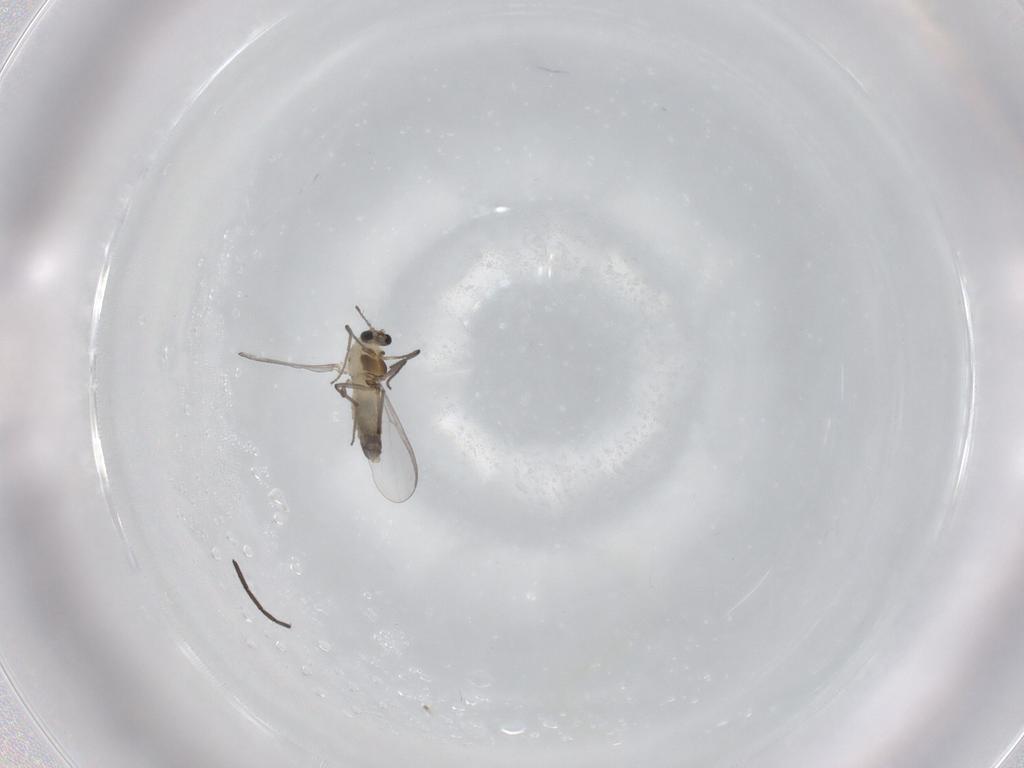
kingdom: Animalia
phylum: Arthropoda
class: Insecta
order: Diptera
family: Chironomidae
